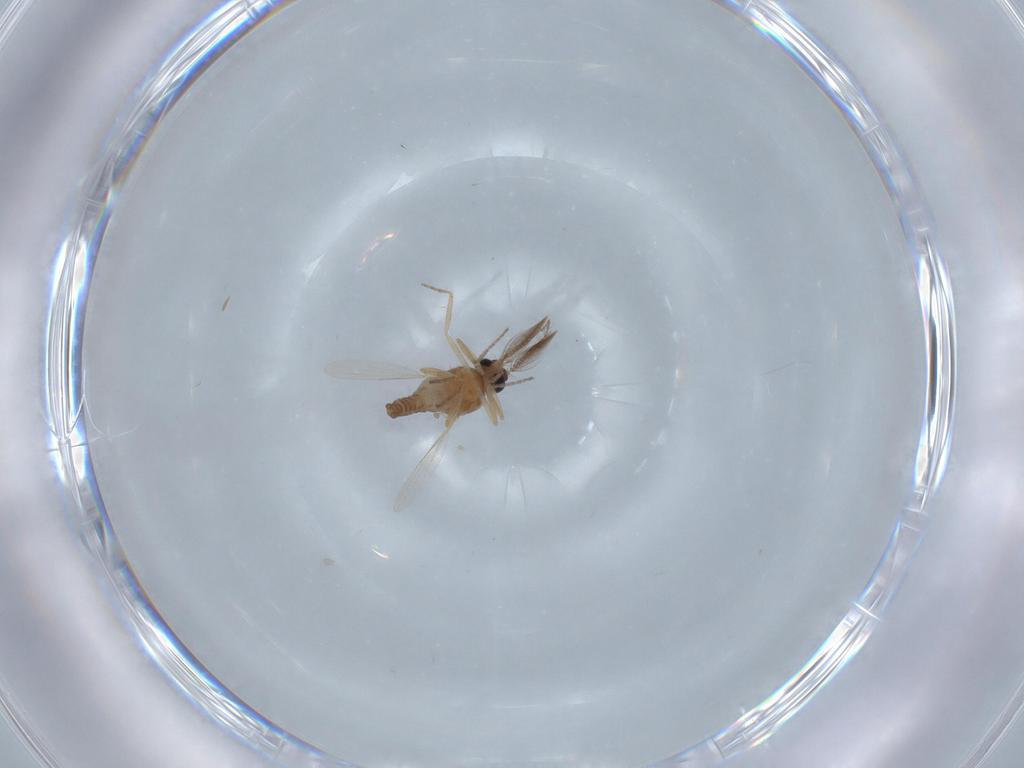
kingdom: Animalia
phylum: Arthropoda
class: Insecta
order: Diptera
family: Ceratopogonidae
